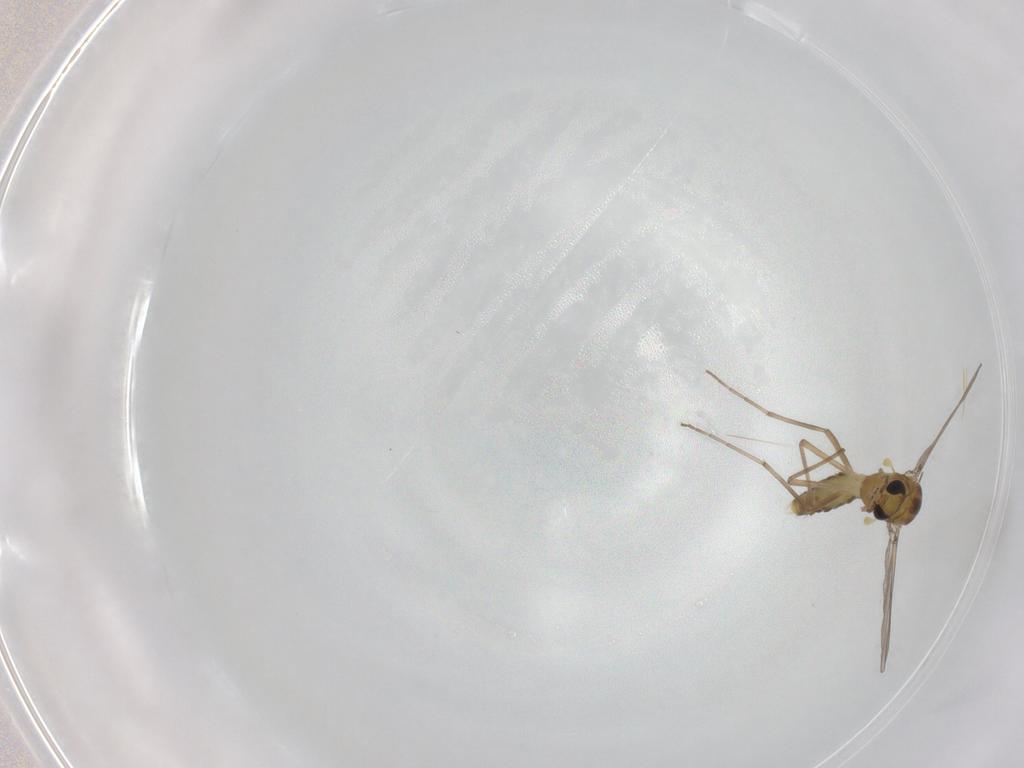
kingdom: Animalia
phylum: Arthropoda
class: Insecta
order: Diptera
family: Chironomidae
